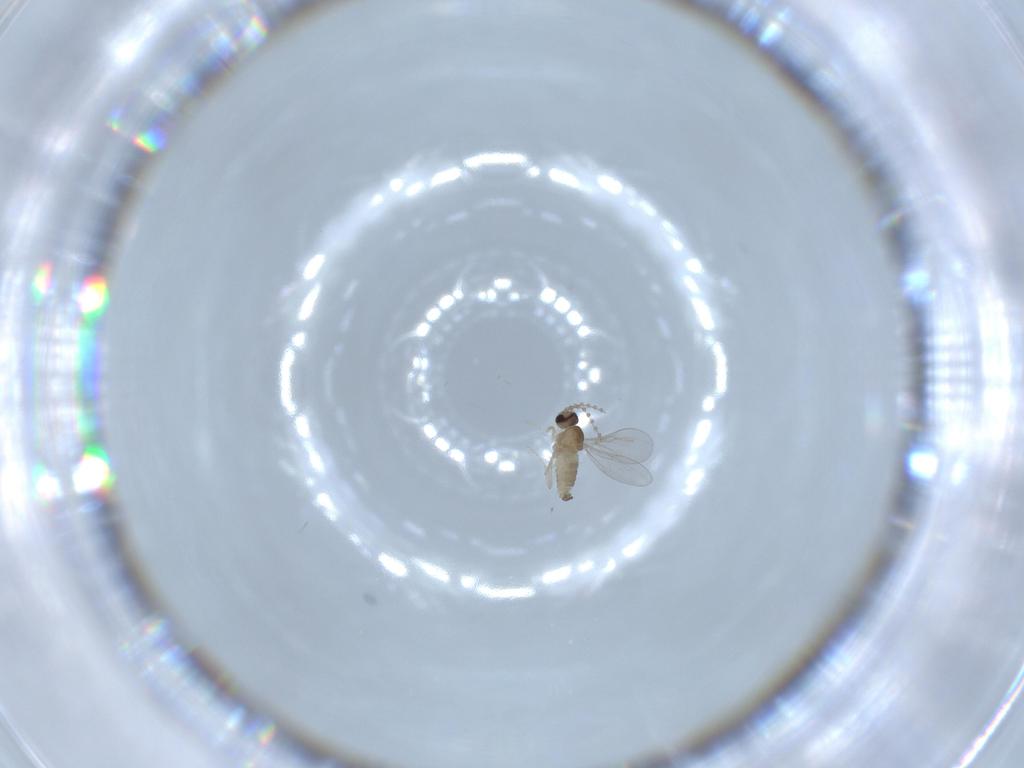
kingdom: Animalia
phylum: Arthropoda
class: Insecta
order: Diptera
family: Cecidomyiidae
